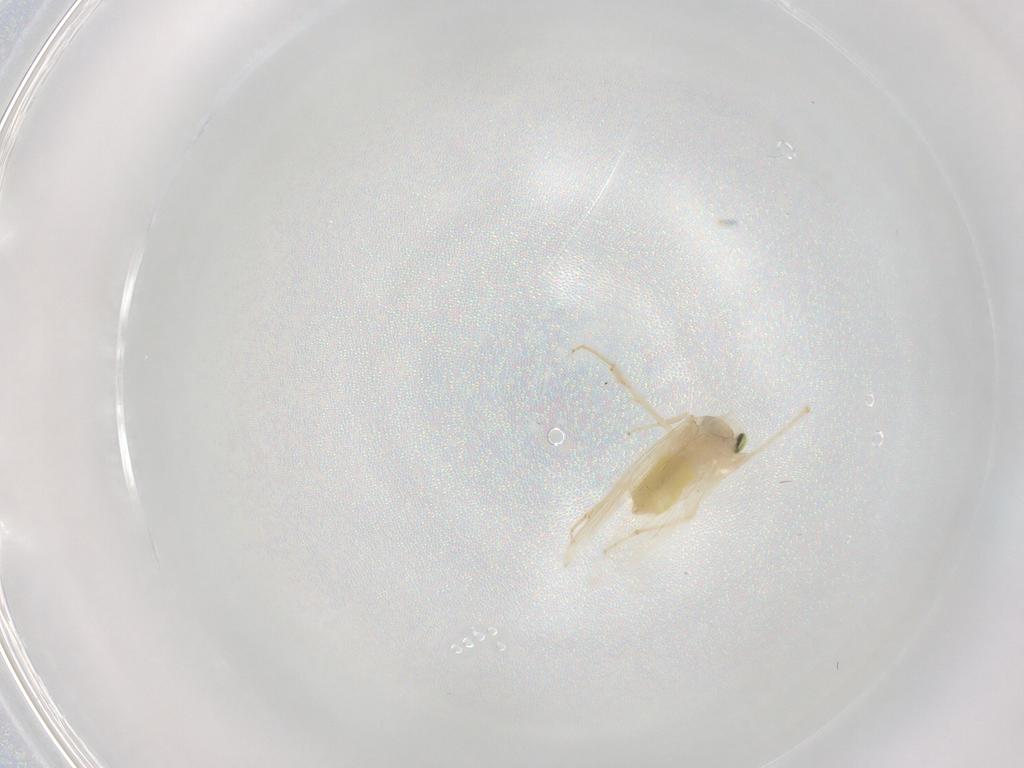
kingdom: Animalia
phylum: Arthropoda
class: Insecta
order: Psocodea
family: Lepidopsocidae
